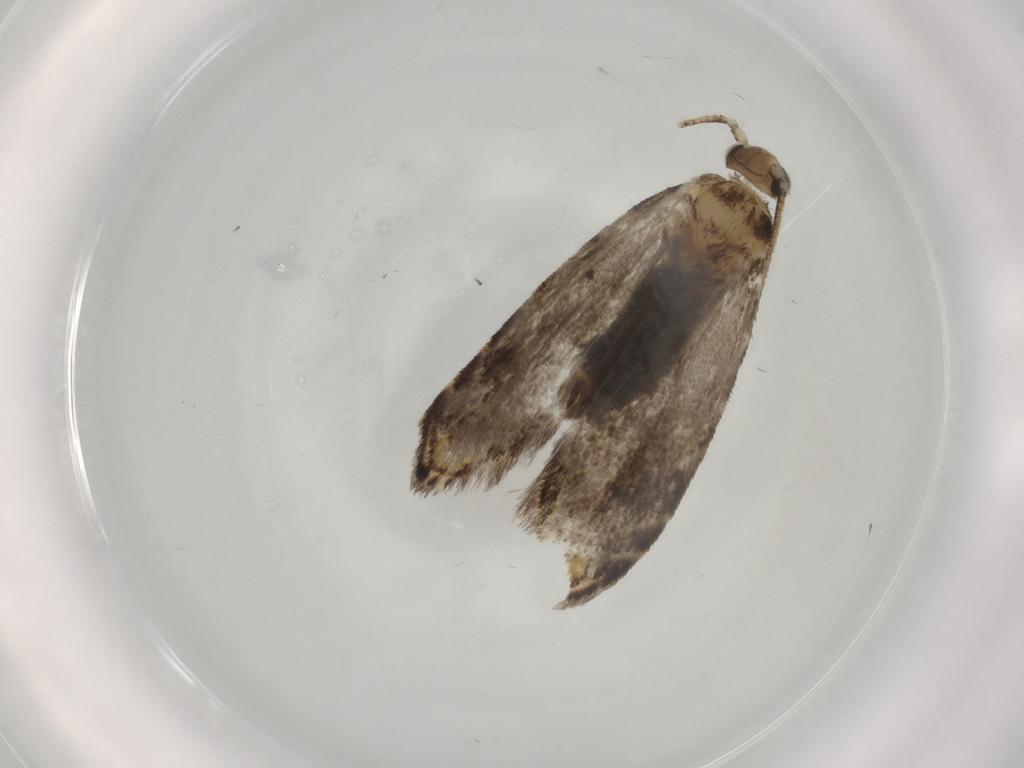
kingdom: Animalia
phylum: Arthropoda
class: Insecta
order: Lepidoptera
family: Tineidae
